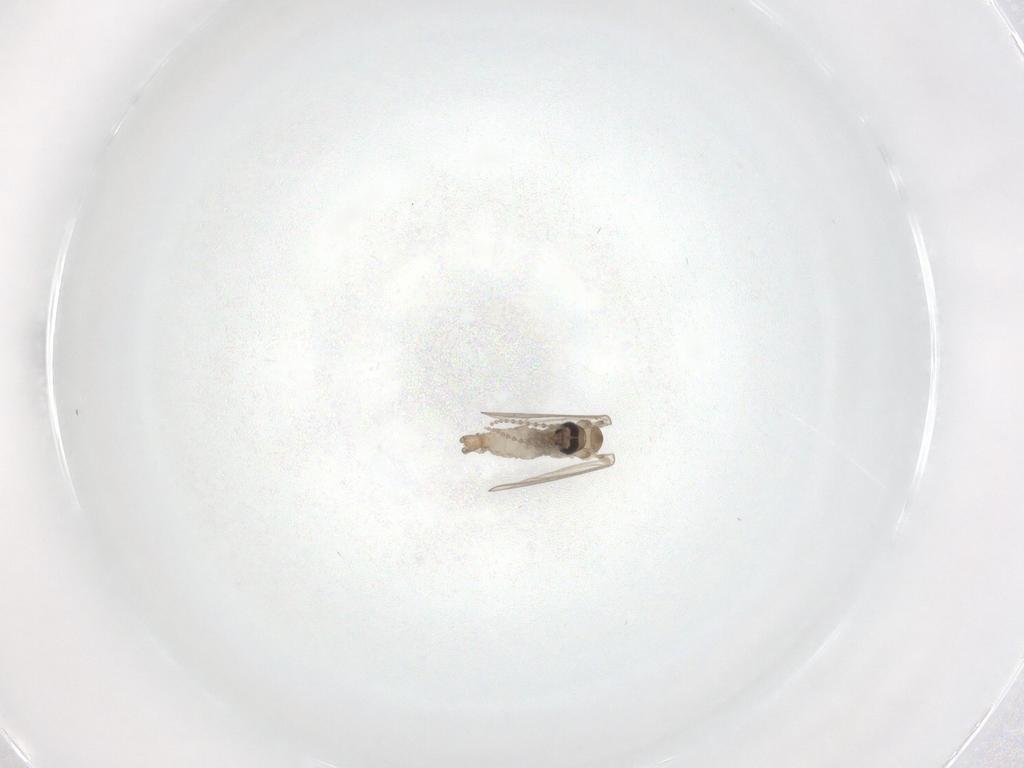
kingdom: Animalia
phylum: Arthropoda
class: Insecta
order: Diptera
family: Psychodidae
